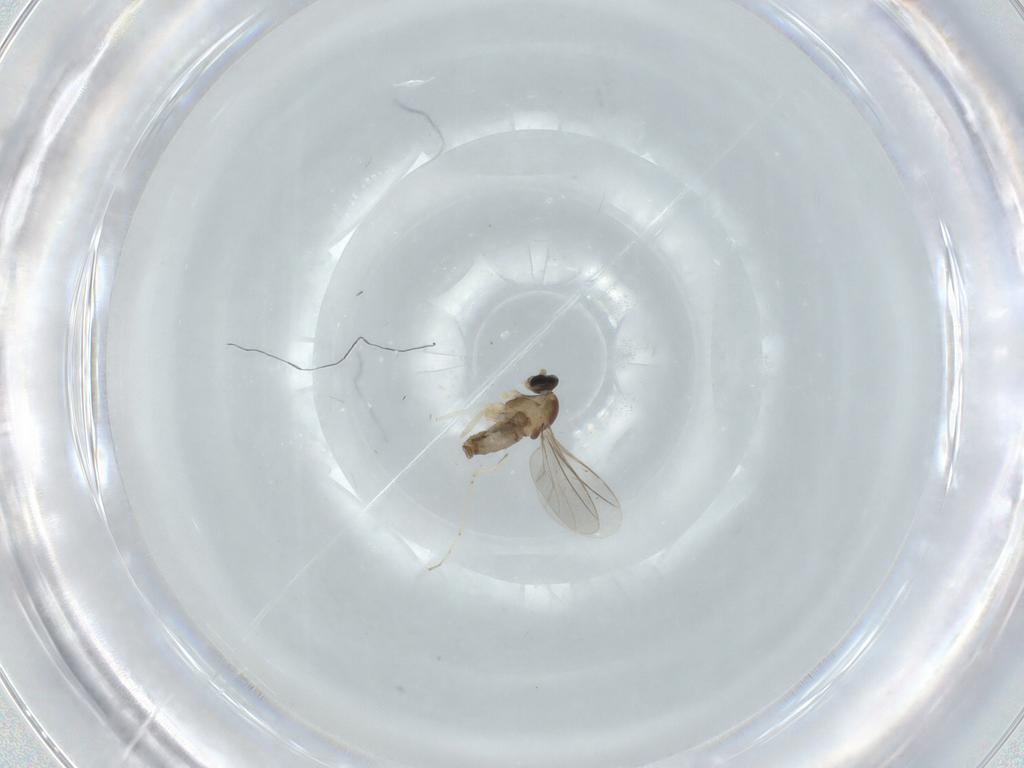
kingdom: Animalia
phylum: Arthropoda
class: Insecta
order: Diptera
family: Cecidomyiidae
